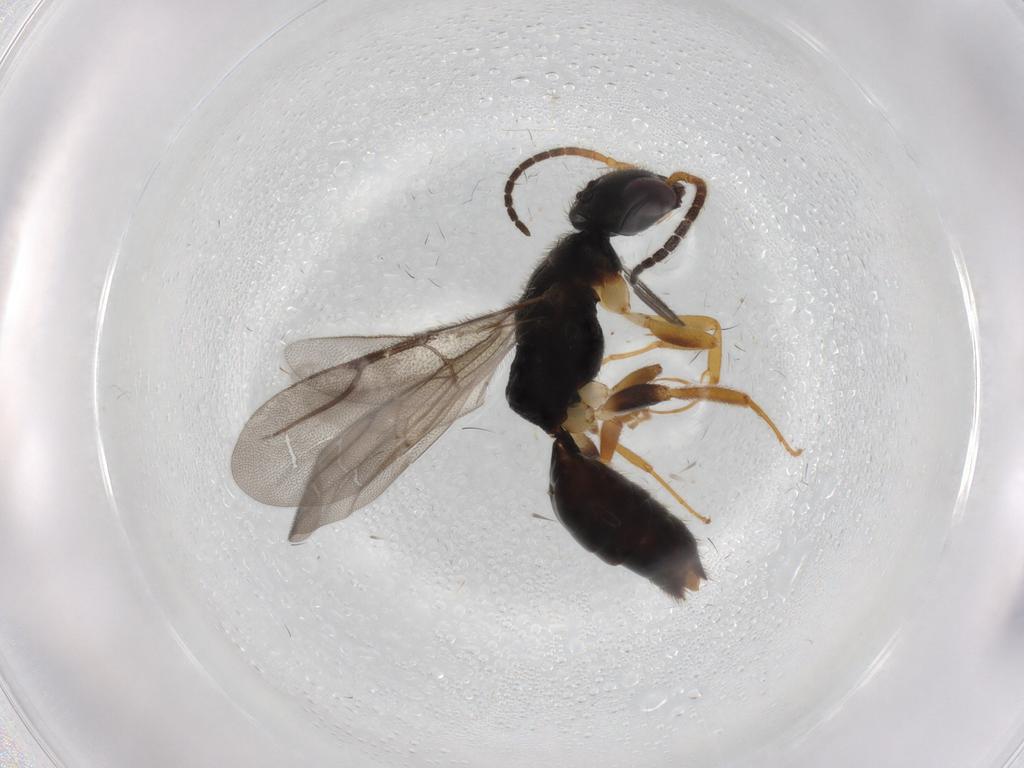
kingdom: Animalia
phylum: Arthropoda
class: Insecta
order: Hymenoptera
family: Bethylidae
